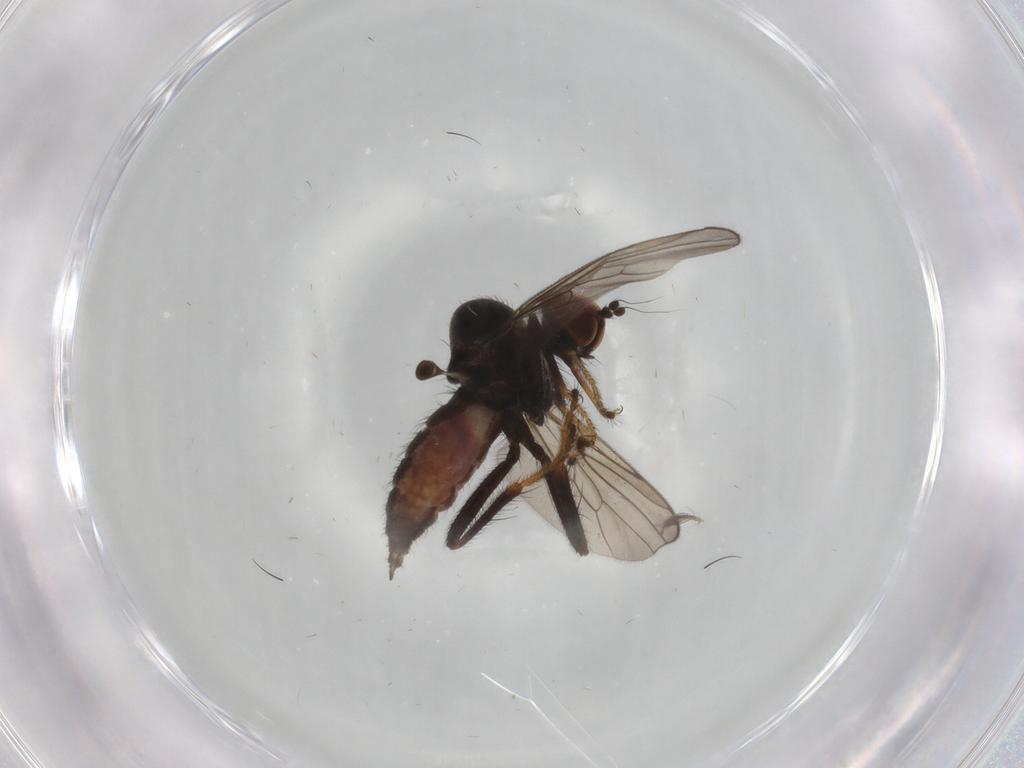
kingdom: Animalia
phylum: Arthropoda
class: Insecta
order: Diptera
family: Hybotidae
